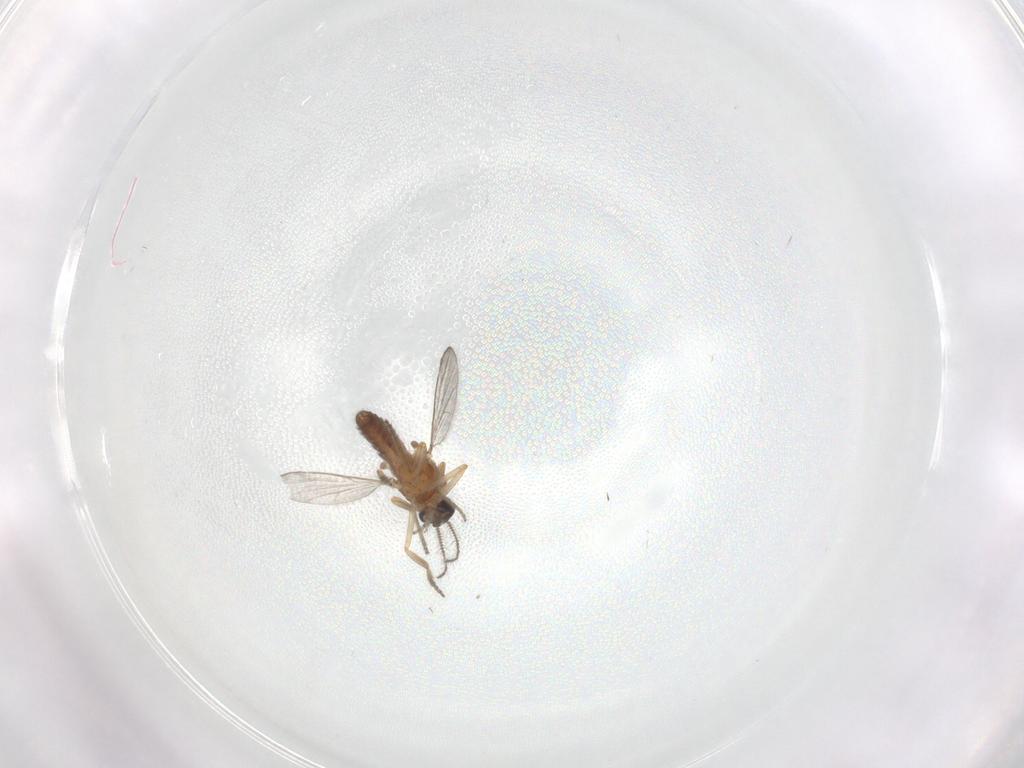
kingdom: Animalia
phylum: Arthropoda
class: Insecta
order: Diptera
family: Ceratopogonidae
